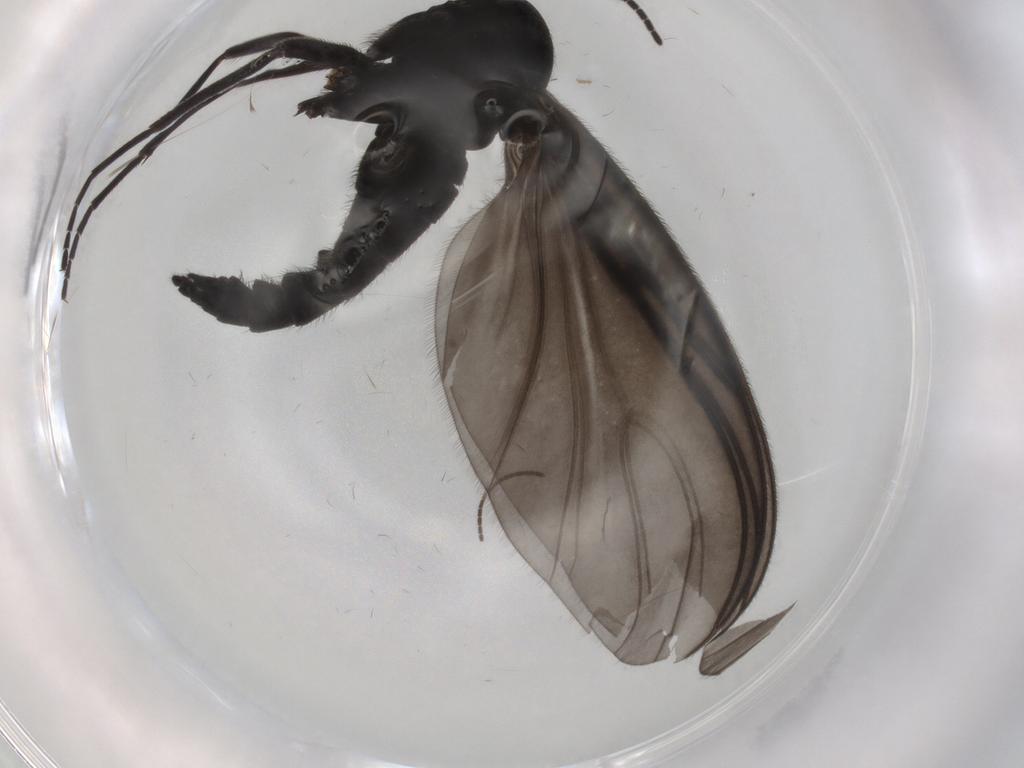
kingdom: Animalia
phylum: Arthropoda
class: Insecta
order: Diptera
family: Sciaridae
